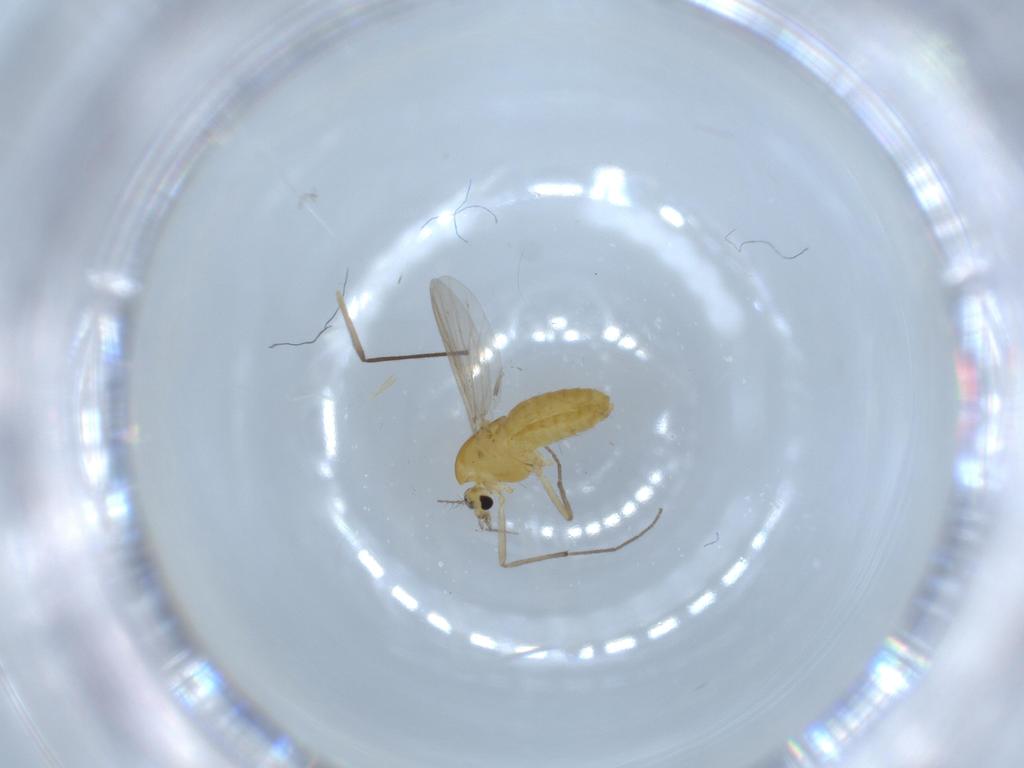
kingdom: Animalia
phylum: Arthropoda
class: Insecta
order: Diptera
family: Chironomidae
